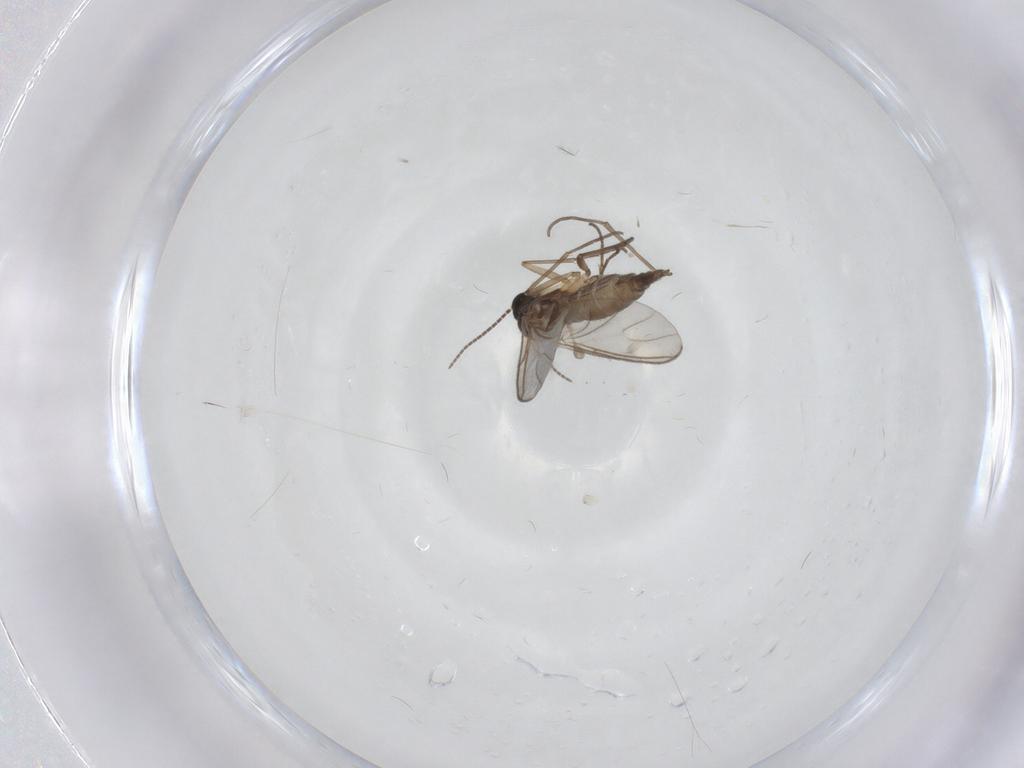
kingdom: Animalia
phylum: Arthropoda
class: Insecta
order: Diptera
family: Sciaridae
